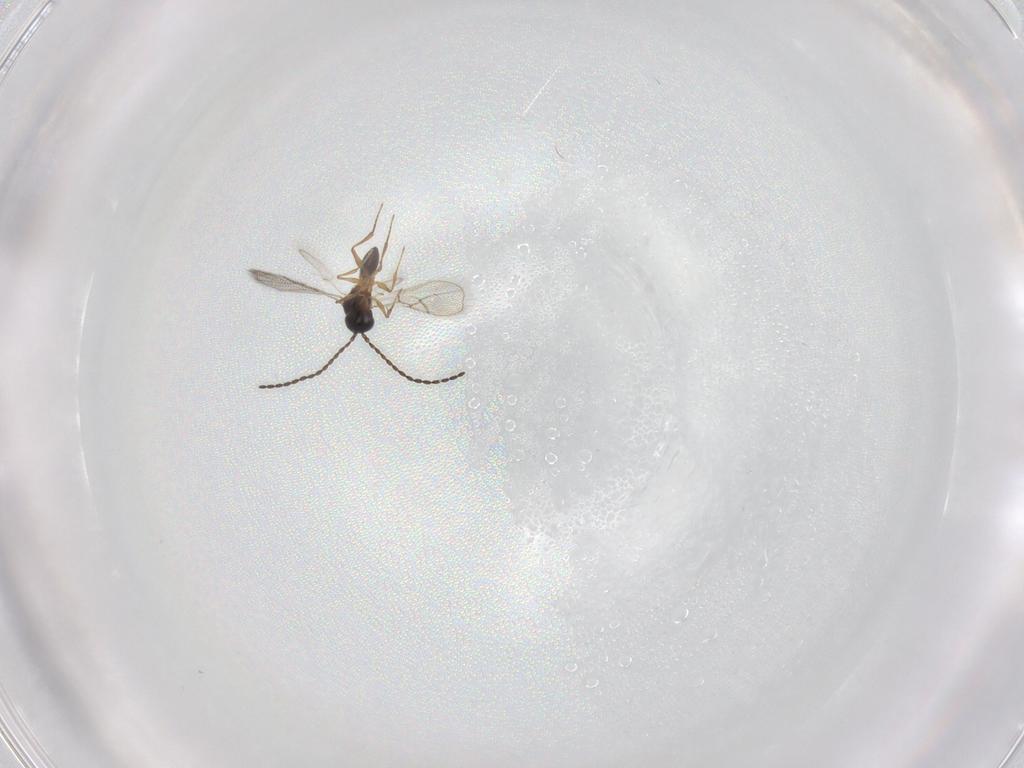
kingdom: Animalia
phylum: Arthropoda
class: Insecta
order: Hymenoptera
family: Figitidae
